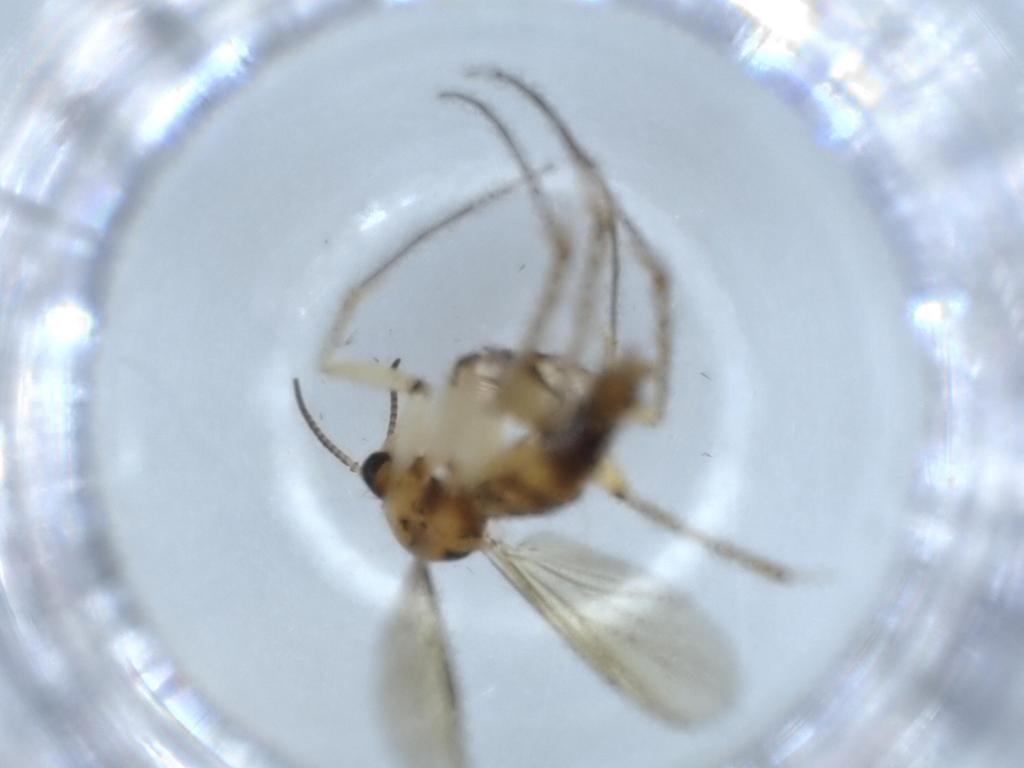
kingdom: Animalia
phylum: Arthropoda
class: Insecta
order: Diptera
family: Mycetophilidae
